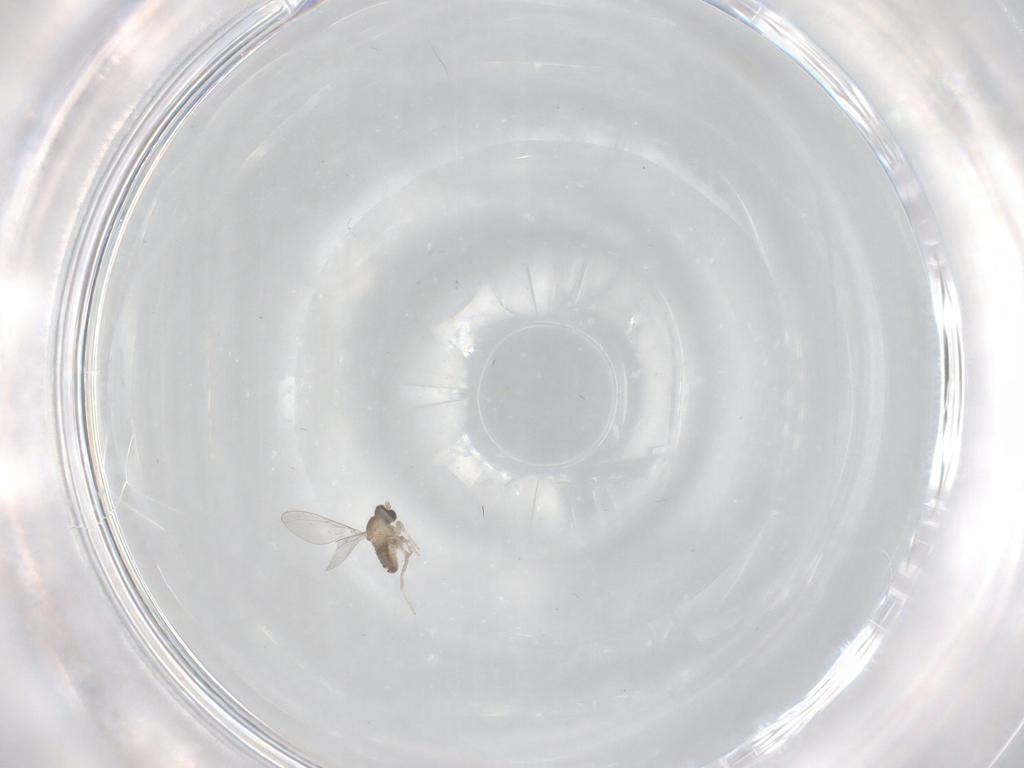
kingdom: Animalia
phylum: Arthropoda
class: Insecta
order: Diptera
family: Cecidomyiidae
